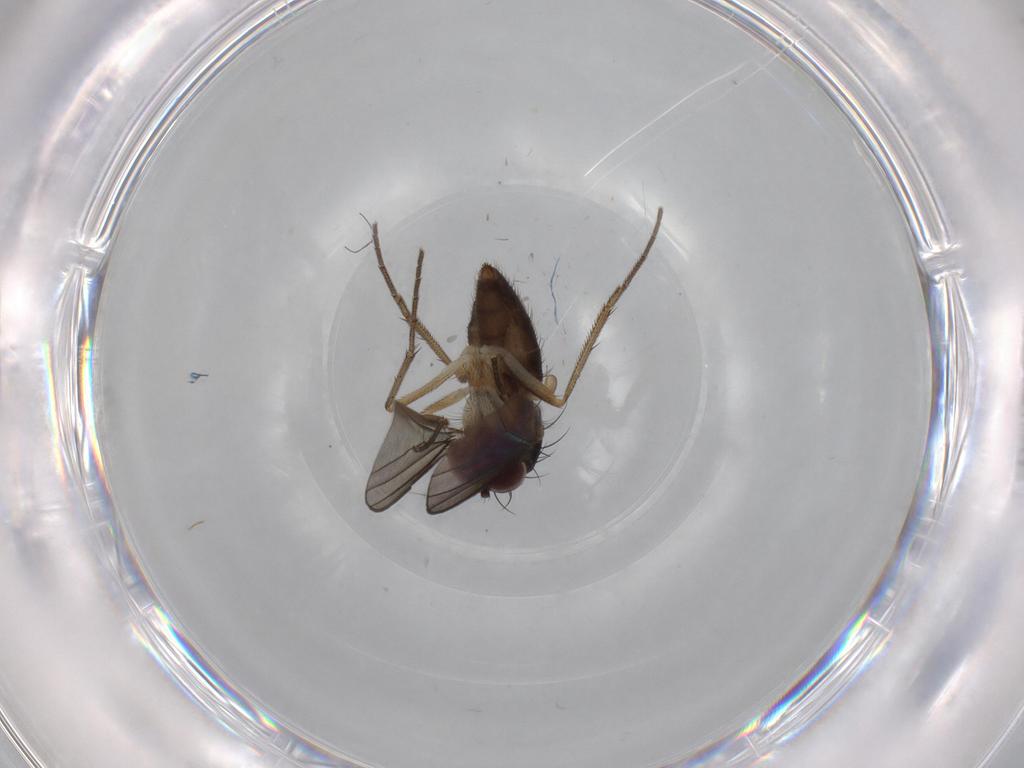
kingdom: Animalia
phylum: Arthropoda
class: Insecta
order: Diptera
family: Dolichopodidae
